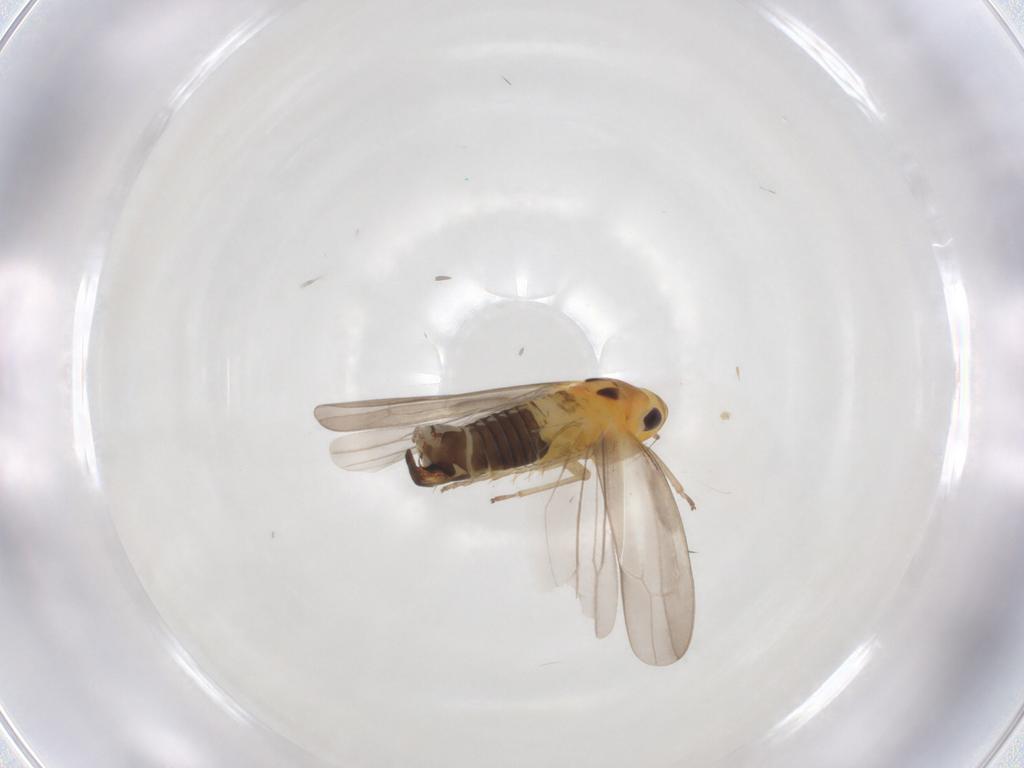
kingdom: Animalia
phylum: Arthropoda
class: Insecta
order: Hemiptera
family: Cicadellidae
